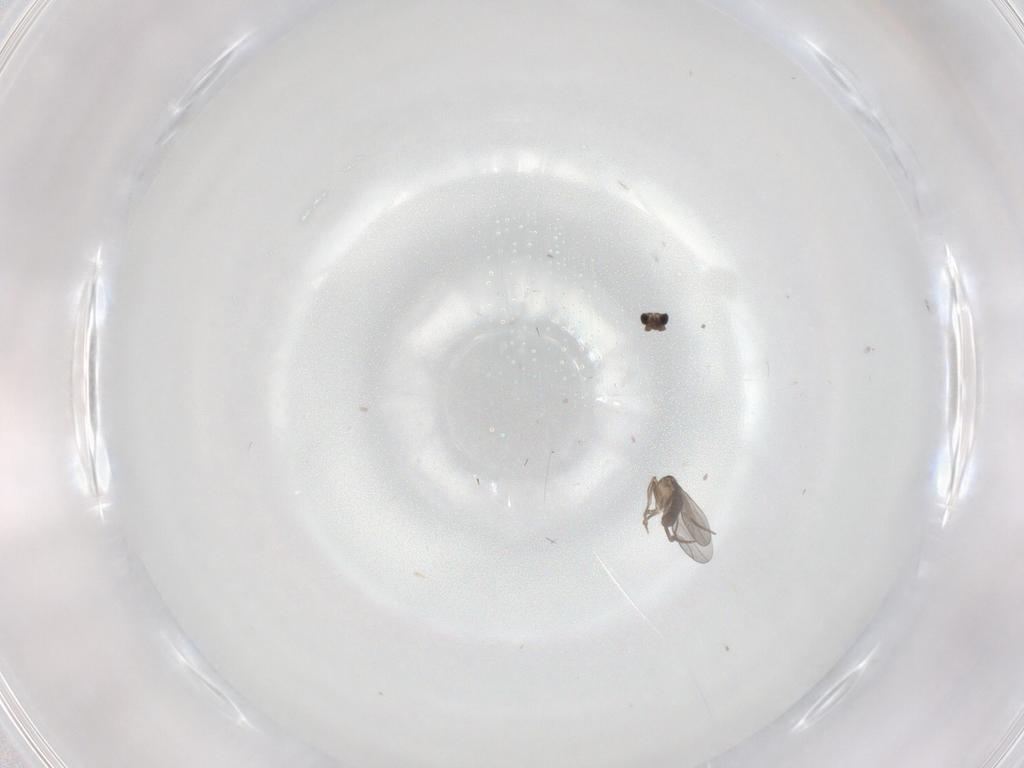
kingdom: Animalia
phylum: Arthropoda
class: Insecta
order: Diptera
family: Phoridae
